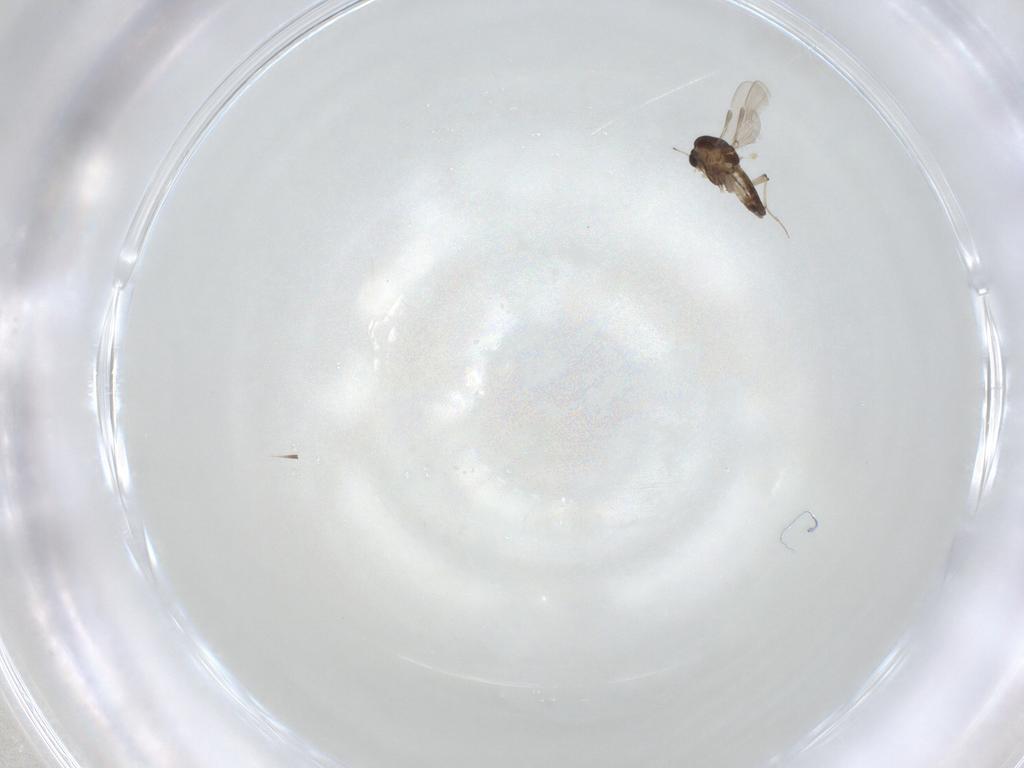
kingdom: Animalia
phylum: Arthropoda
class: Insecta
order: Diptera
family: Chironomidae
